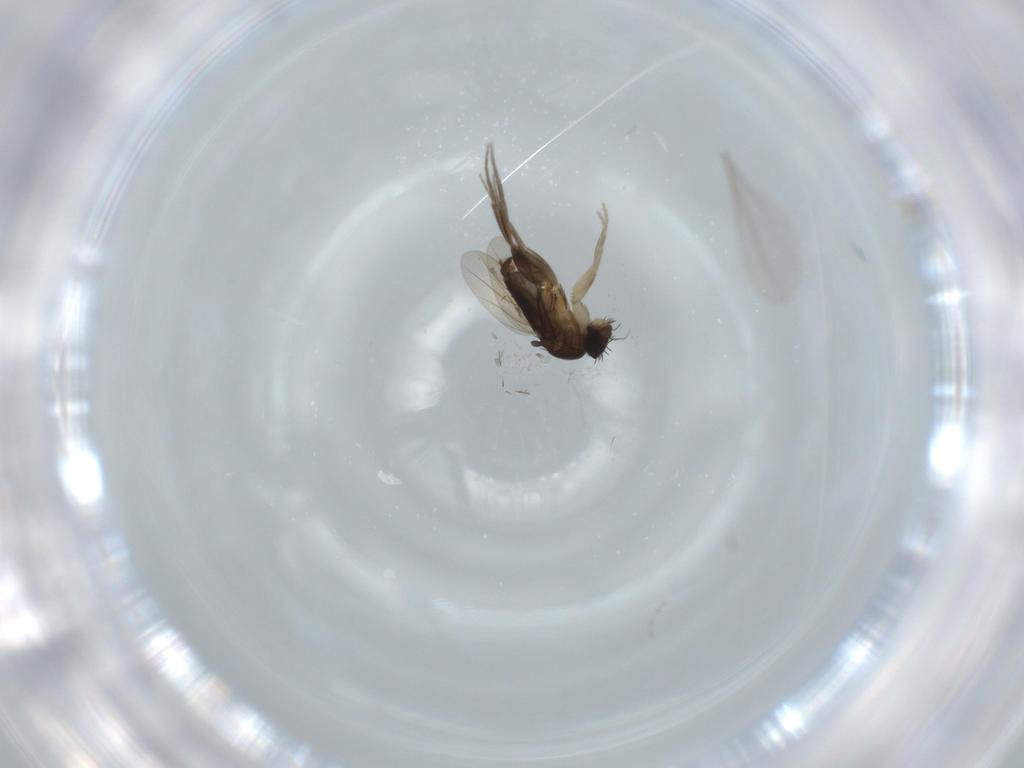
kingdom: Animalia
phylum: Arthropoda
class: Insecta
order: Diptera
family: Phoridae
